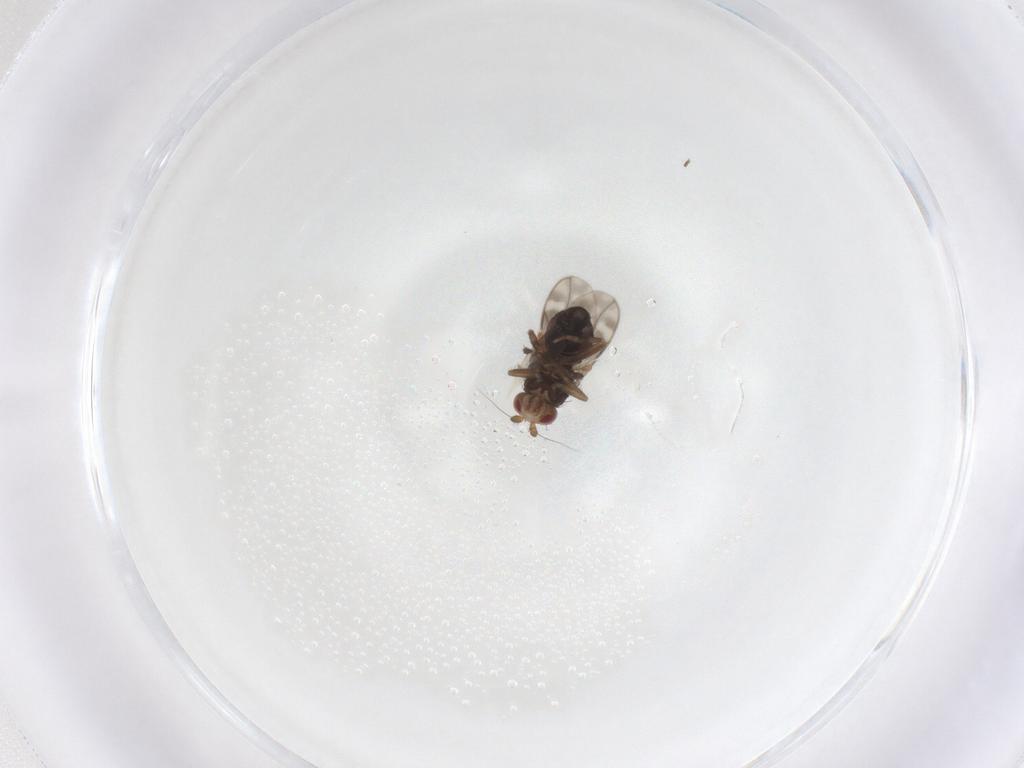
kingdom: Animalia
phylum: Arthropoda
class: Insecta
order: Diptera
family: Sphaeroceridae
